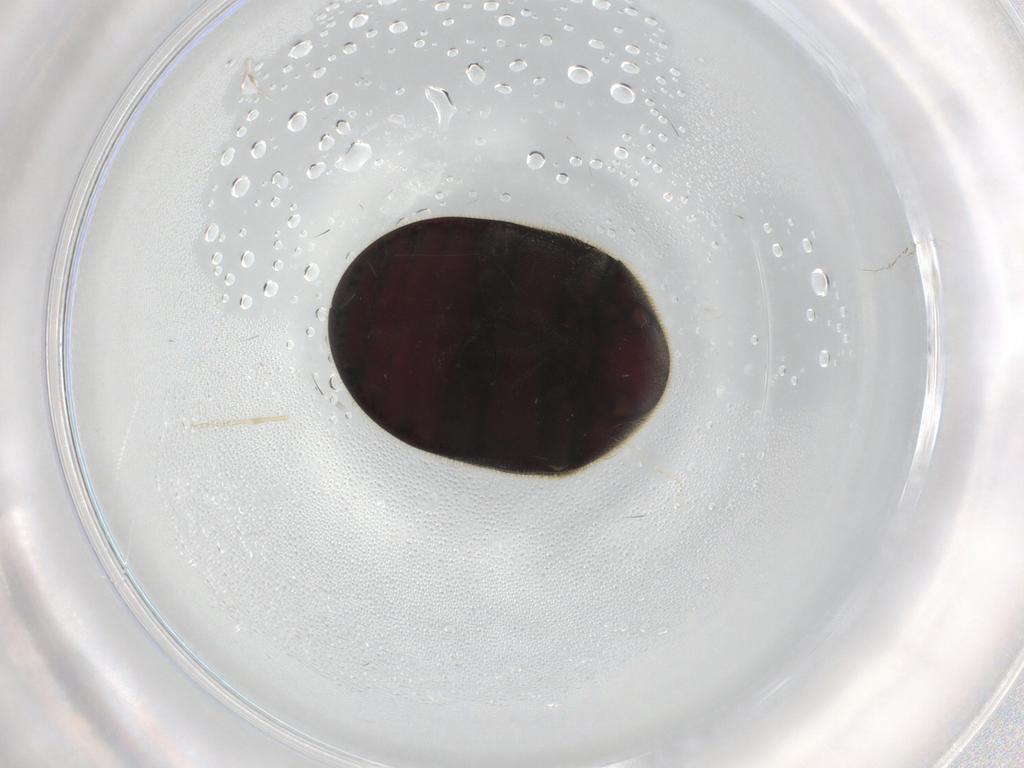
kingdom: Animalia
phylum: Arthropoda
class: Insecta
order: Coleoptera
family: Ptinidae
